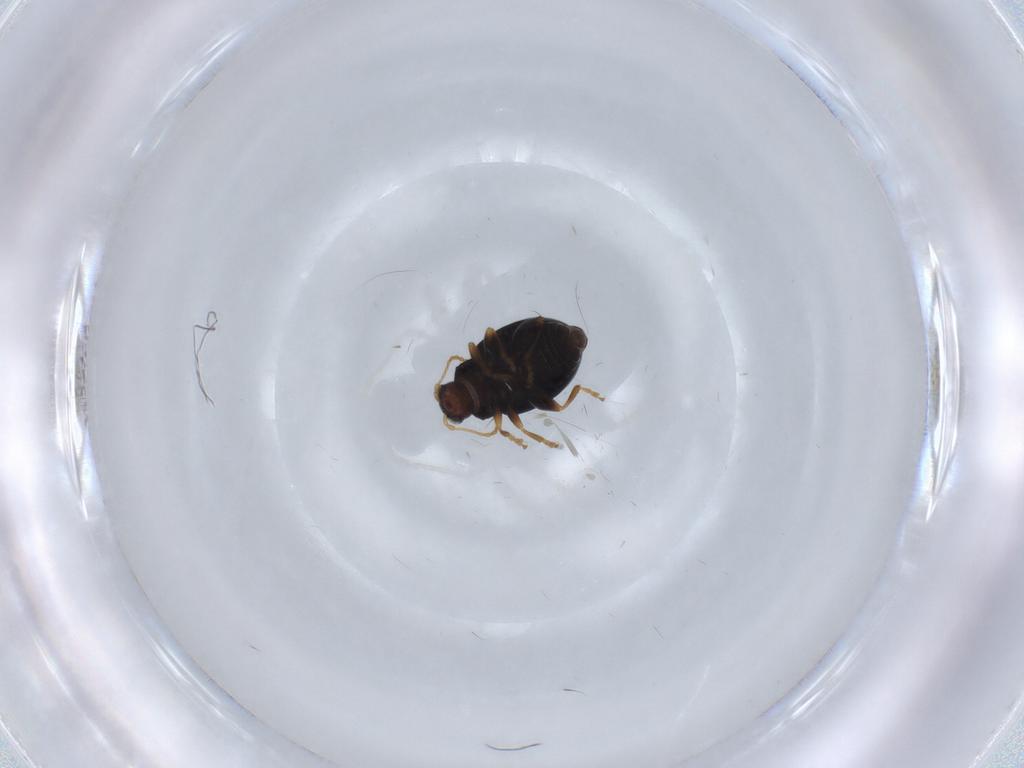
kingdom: Animalia
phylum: Arthropoda
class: Insecta
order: Coleoptera
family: Chrysomelidae
